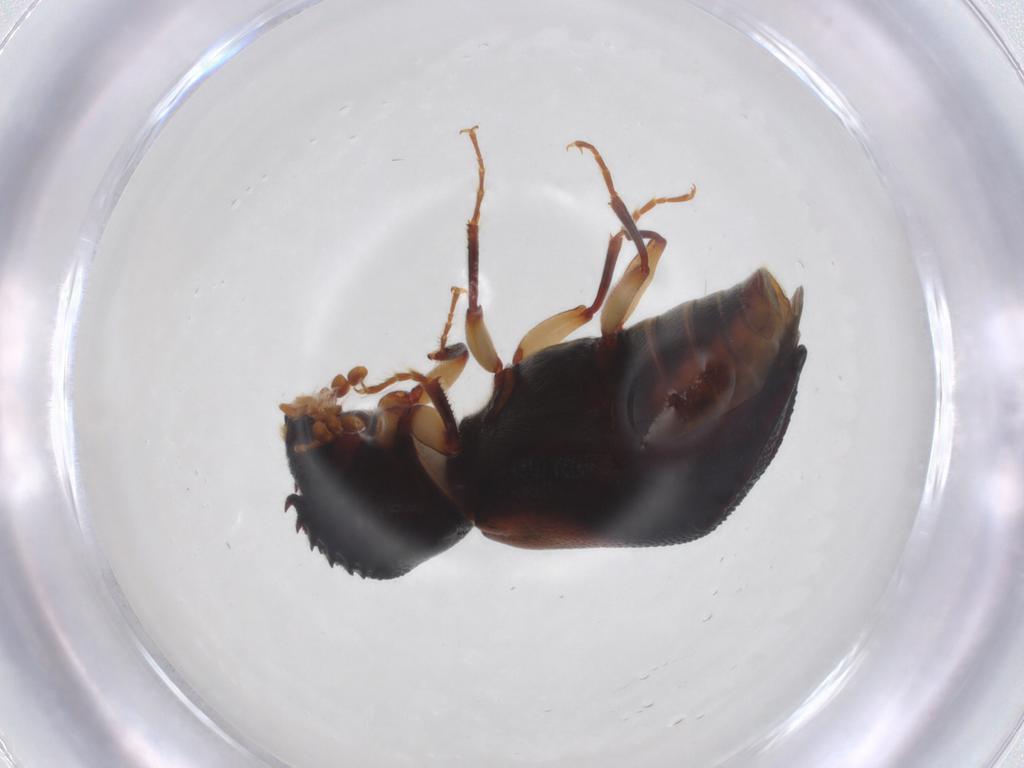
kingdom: Animalia
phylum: Arthropoda
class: Insecta
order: Coleoptera
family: Bostrichidae
